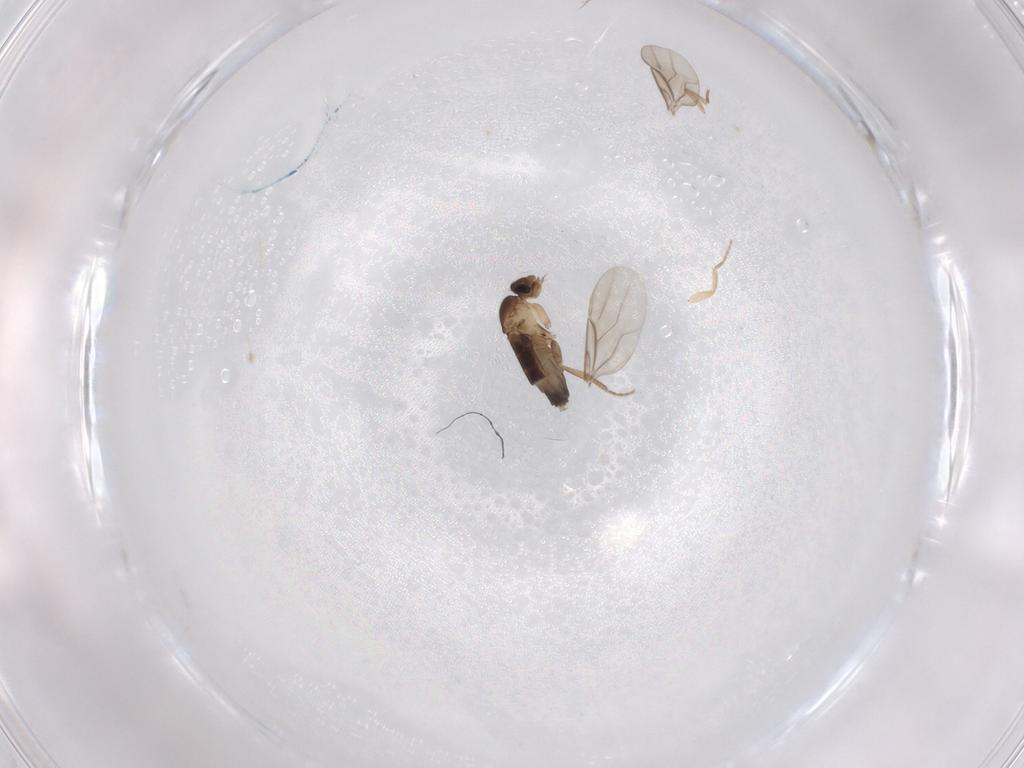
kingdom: Animalia
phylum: Arthropoda
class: Insecta
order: Diptera
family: Phoridae
